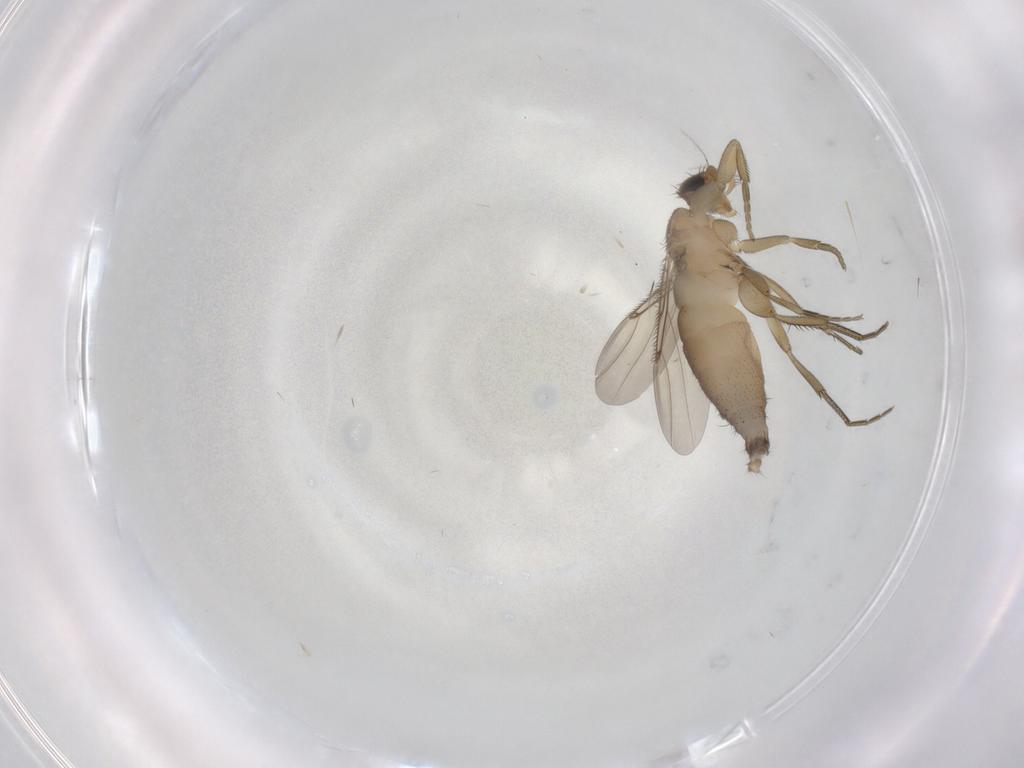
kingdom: Animalia
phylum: Arthropoda
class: Insecta
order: Diptera
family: Phoridae
